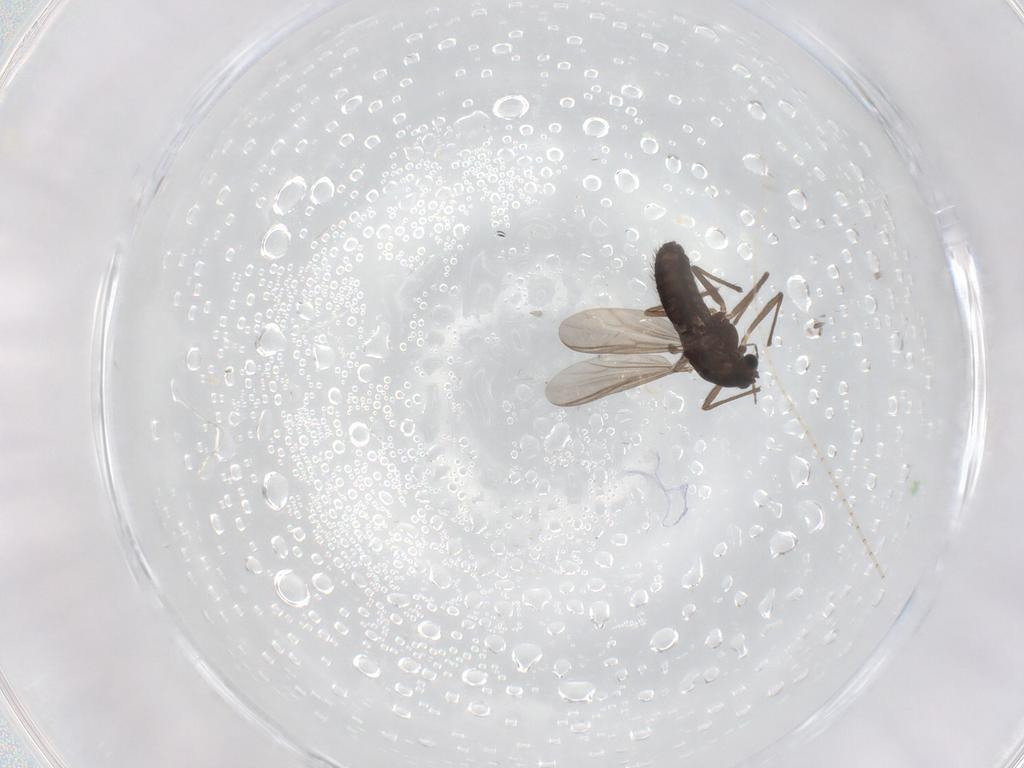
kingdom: Animalia
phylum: Arthropoda
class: Insecta
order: Diptera
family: Chironomidae
